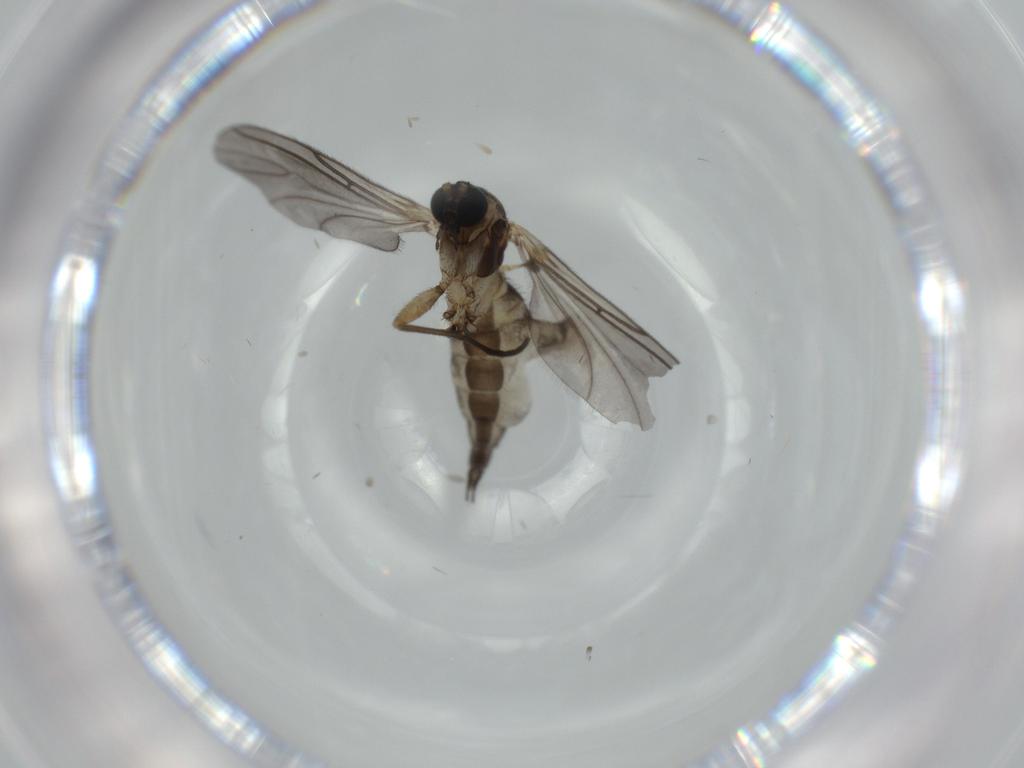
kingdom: Animalia
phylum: Arthropoda
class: Insecta
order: Diptera
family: Sciaridae
